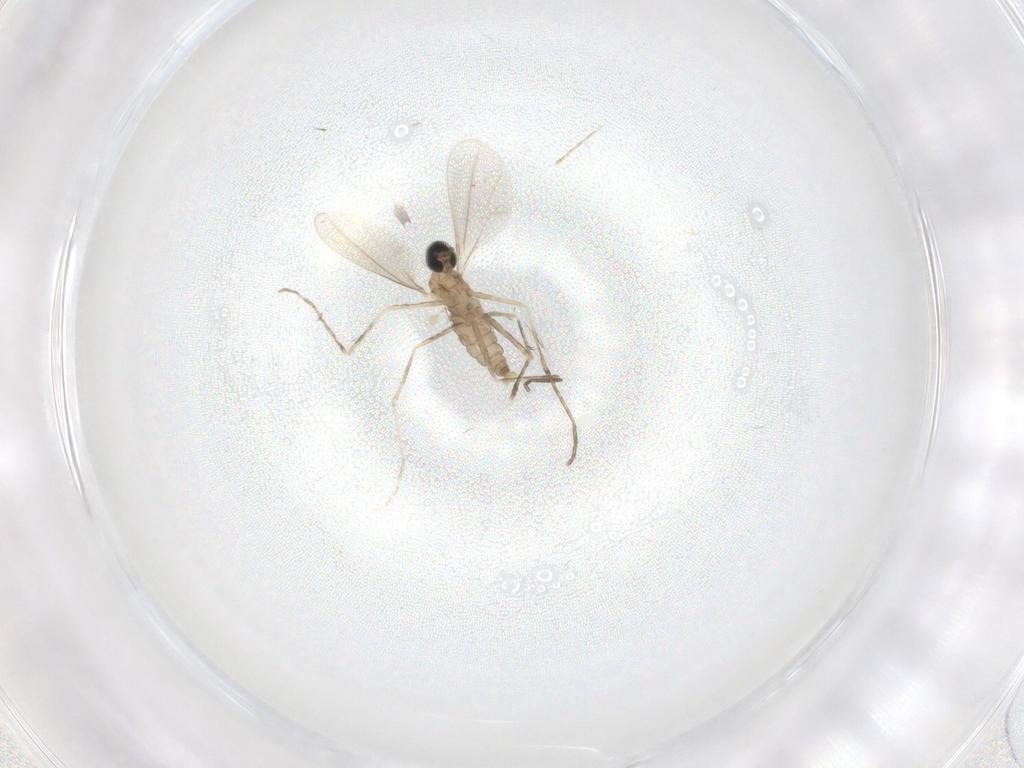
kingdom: Animalia
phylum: Arthropoda
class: Insecta
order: Diptera
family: Cecidomyiidae
